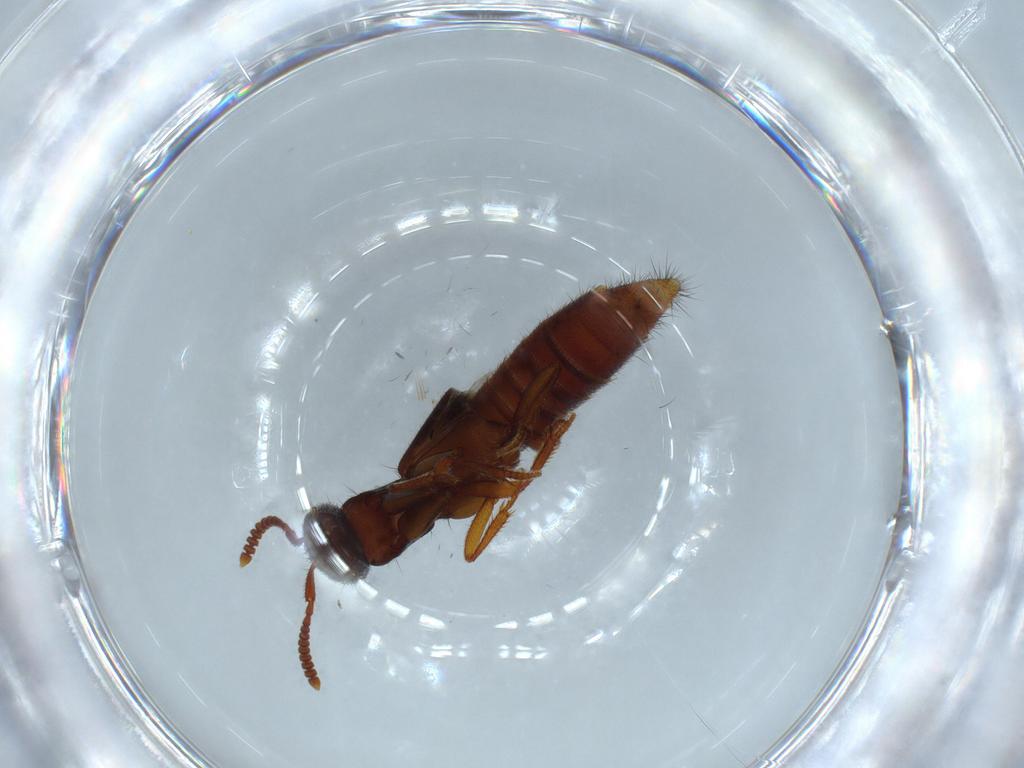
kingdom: Animalia
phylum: Arthropoda
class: Insecta
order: Coleoptera
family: Staphylinidae
